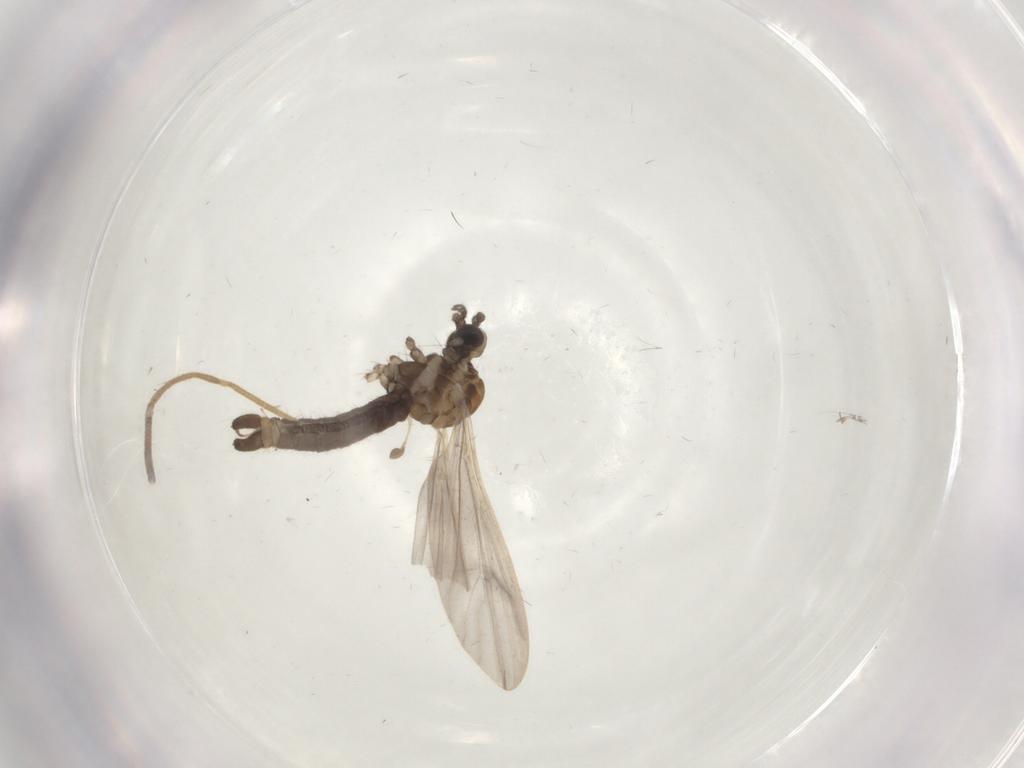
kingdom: Animalia
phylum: Arthropoda
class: Insecta
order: Diptera
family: Limoniidae
